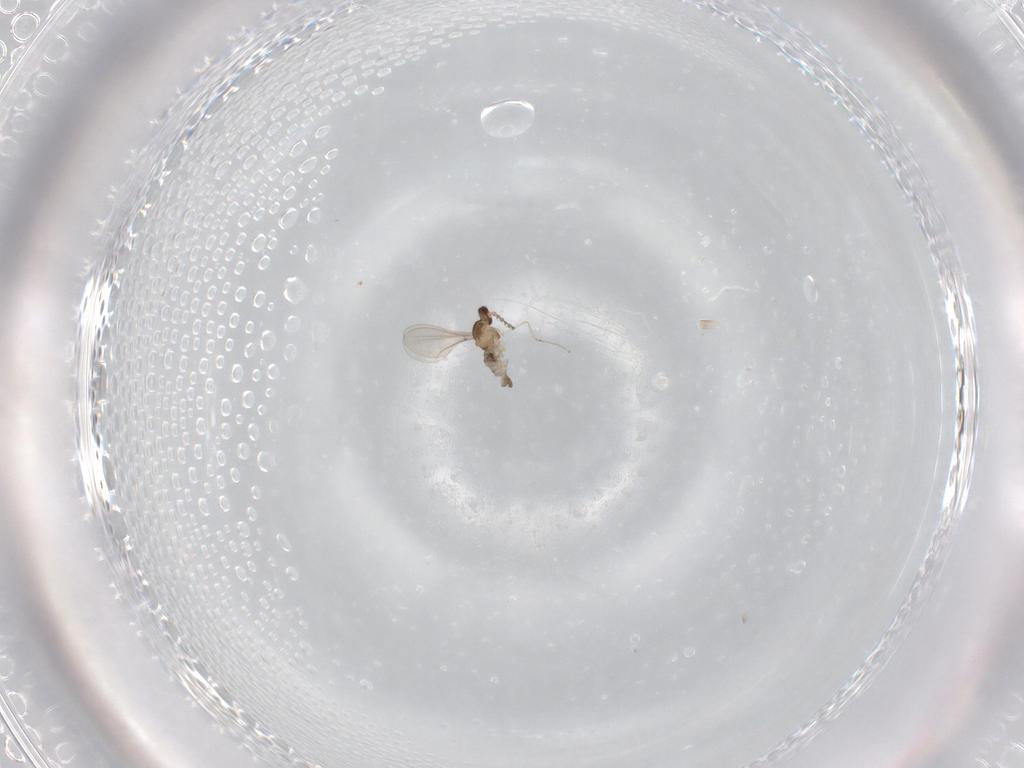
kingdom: Animalia
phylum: Arthropoda
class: Insecta
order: Diptera
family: Cecidomyiidae
